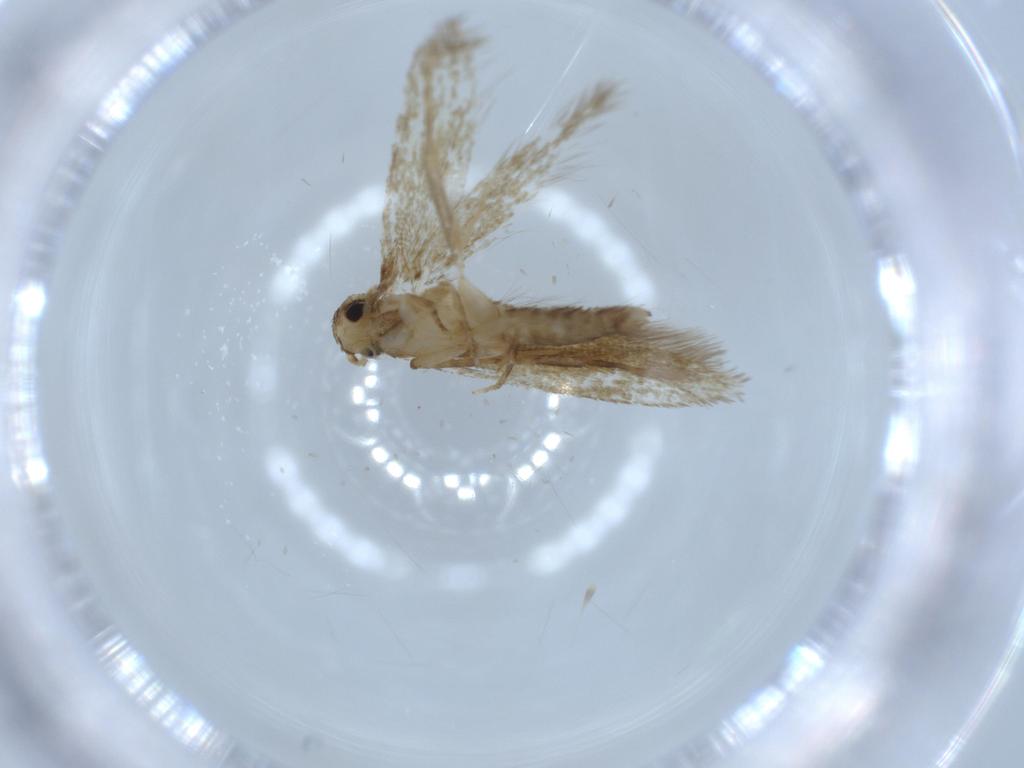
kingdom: Animalia
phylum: Arthropoda
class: Insecta
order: Lepidoptera
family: Tineidae
